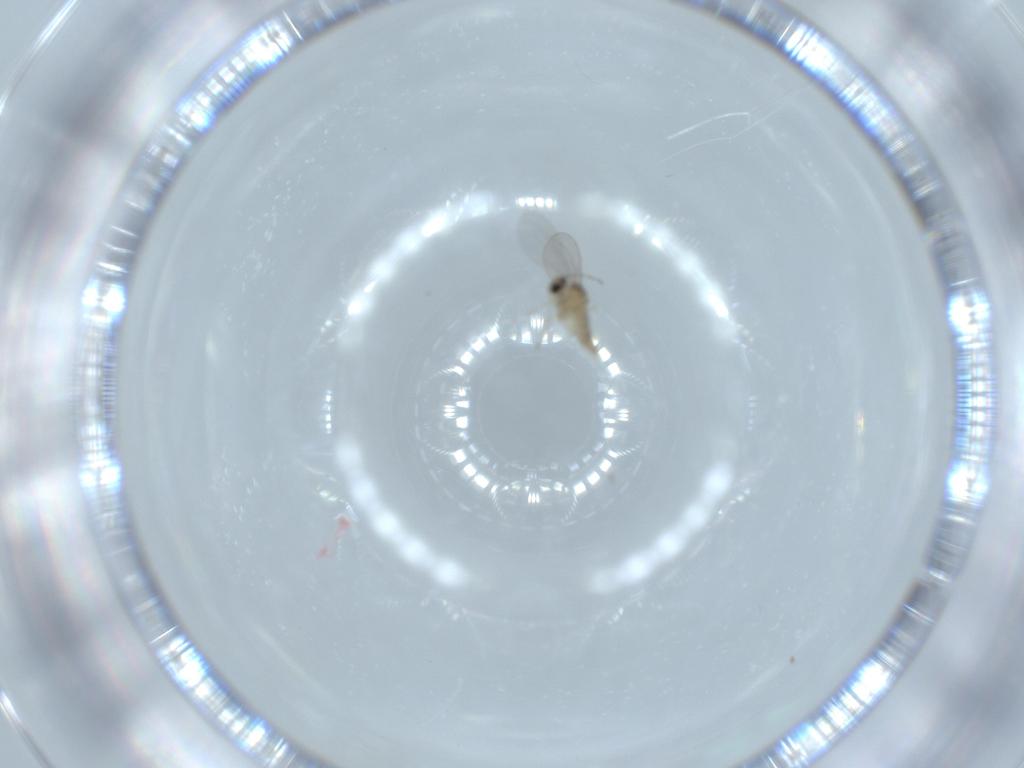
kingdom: Animalia
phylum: Arthropoda
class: Insecta
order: Diptera
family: Cecidomyiidae
